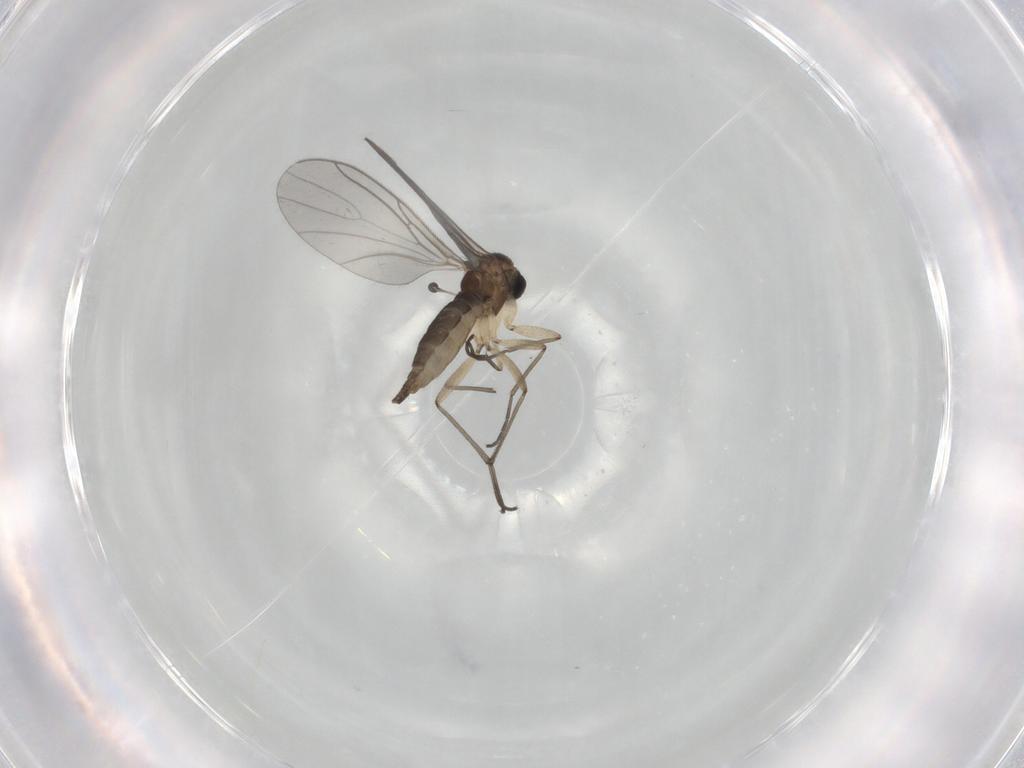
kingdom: Animalia
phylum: Arthropoda
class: Insecta
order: Diptera
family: Sciaridae
